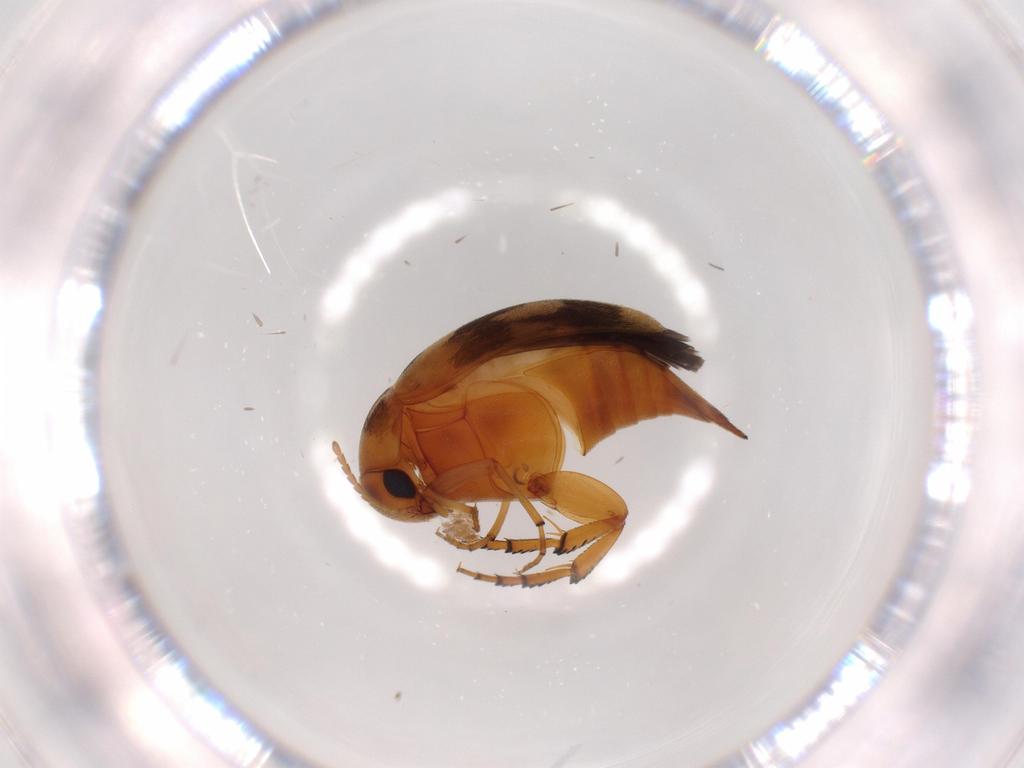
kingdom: Animalia
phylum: Arthropoda
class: Insecta
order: Coleoptera
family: Mordellidae
